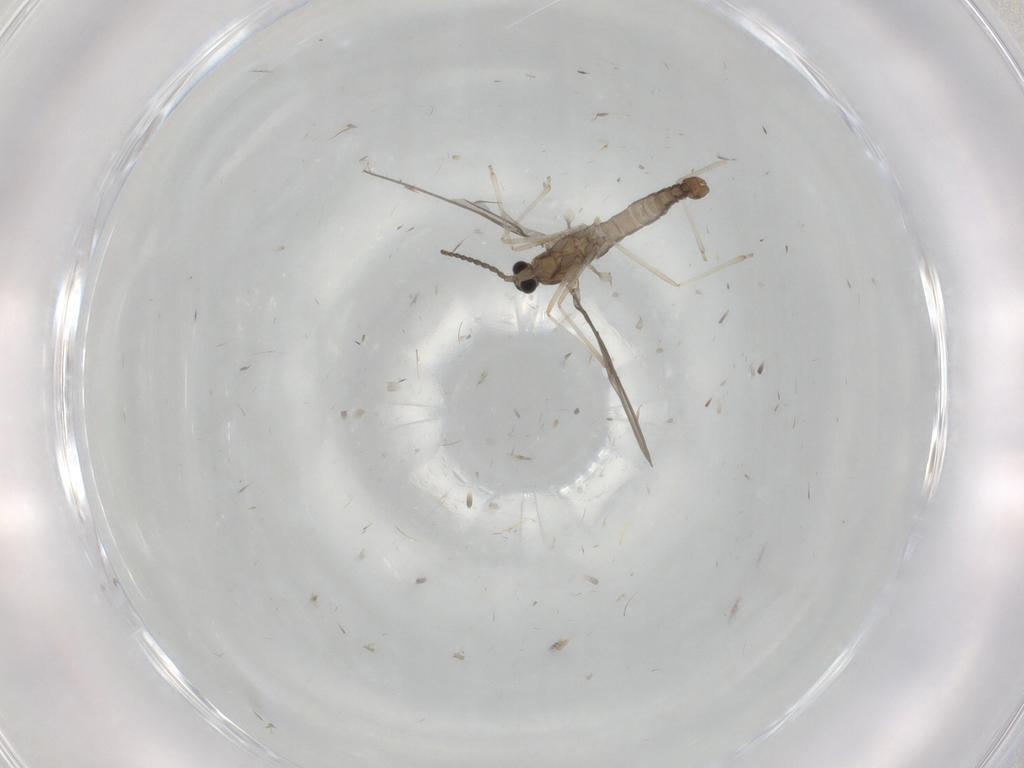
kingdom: Animalia
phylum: Arthropoda
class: Insecta
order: Diptera
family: Cecidomyiidae
